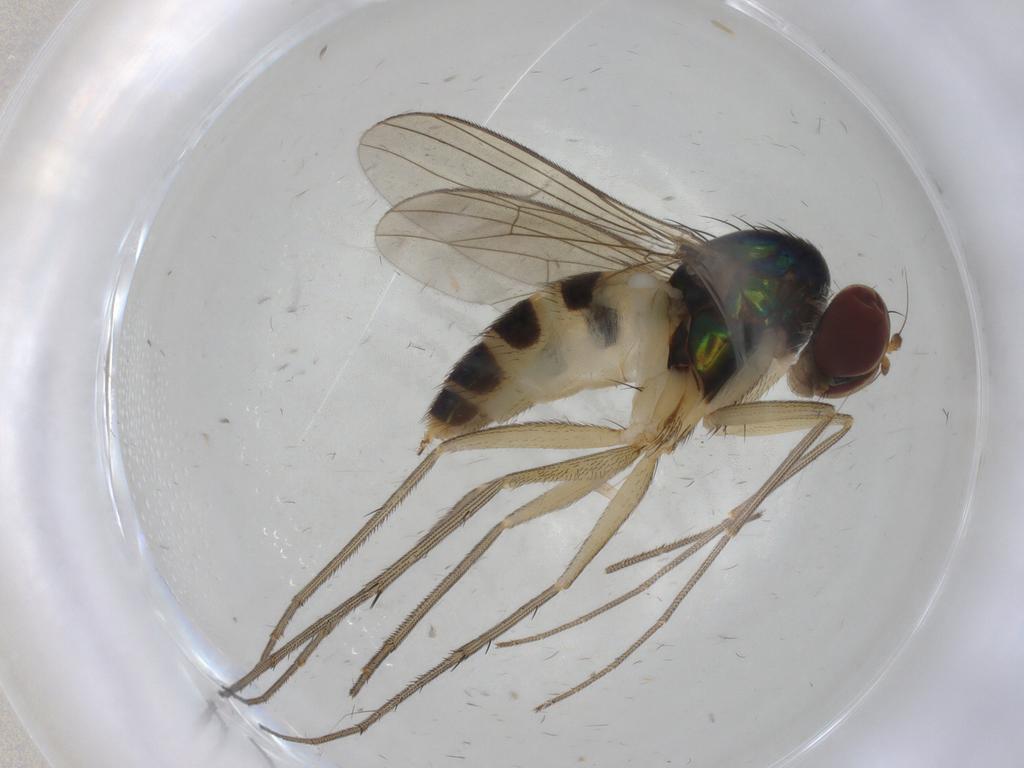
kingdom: Animalia
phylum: Arthropoda
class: Insecta
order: Diptera
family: Dolichopodidae
